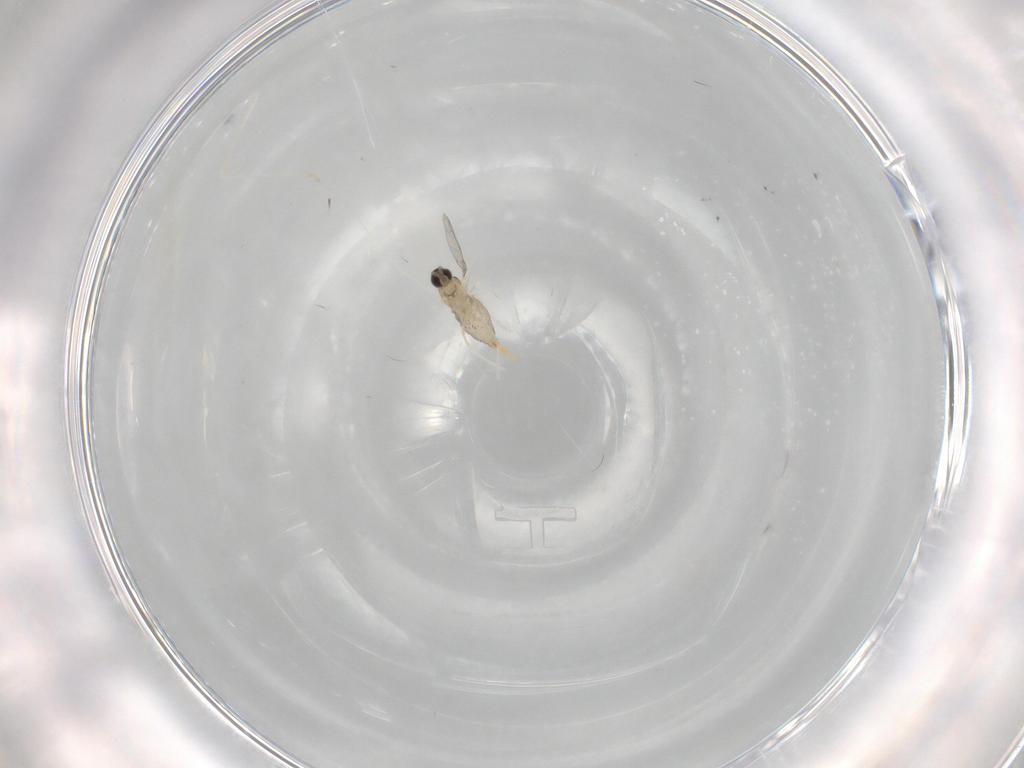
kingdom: Animalia
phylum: Arthropoda
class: Insecta
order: Diptera
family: Cecidomyiidae
